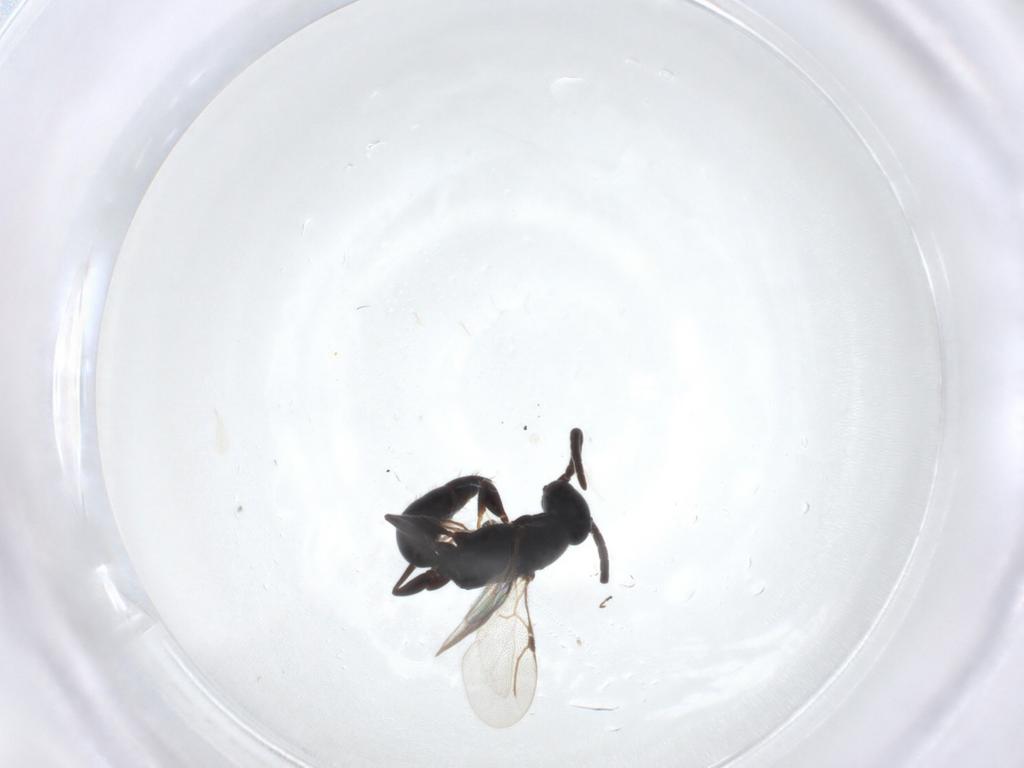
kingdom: Animalia
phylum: Arthropoda
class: Insecta
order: Hymenoptera
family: Bethylidae
